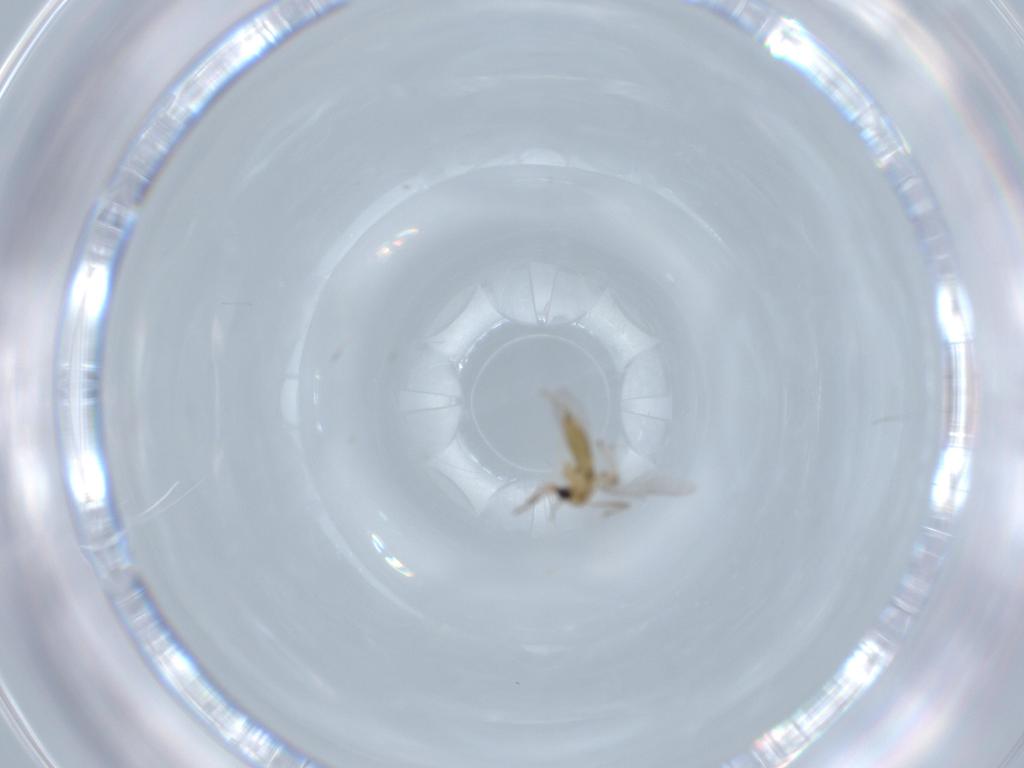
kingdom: Animalia
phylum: Arthropoda
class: Insecta
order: Diptera
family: Chironomidae
